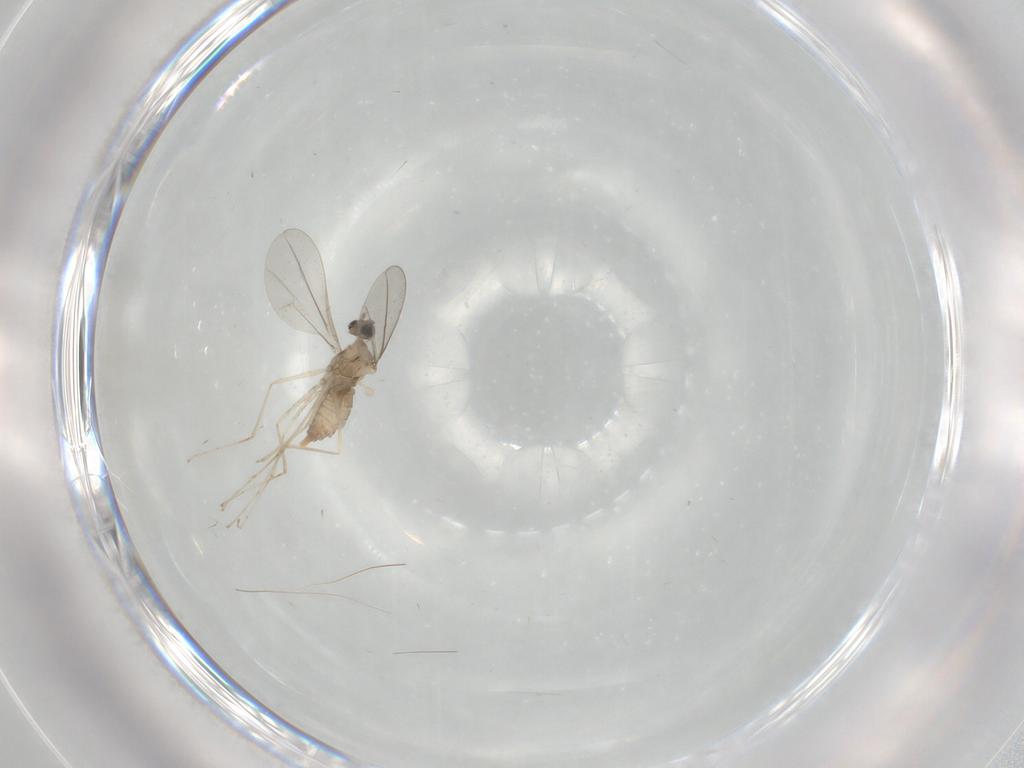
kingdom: Animalia
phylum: Arthropoda
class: Insecta
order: Diptera
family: Cecidomyiidae
